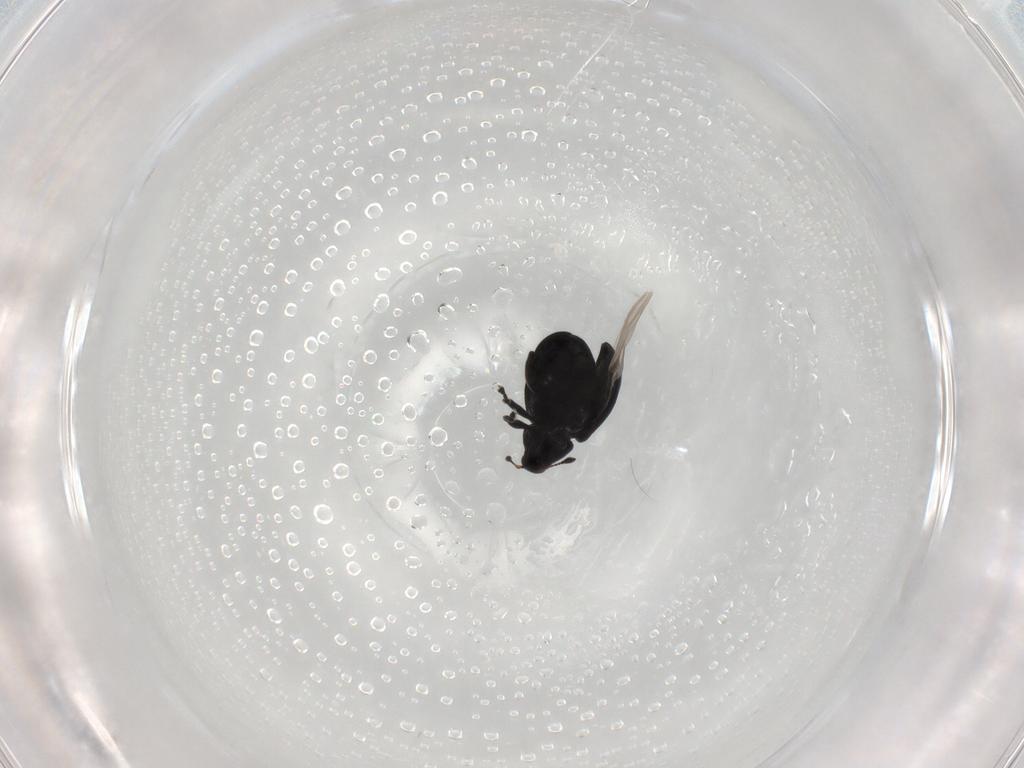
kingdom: Animalia
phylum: Arthropoda
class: Insecta
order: Coleoptera
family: Curculionidae
